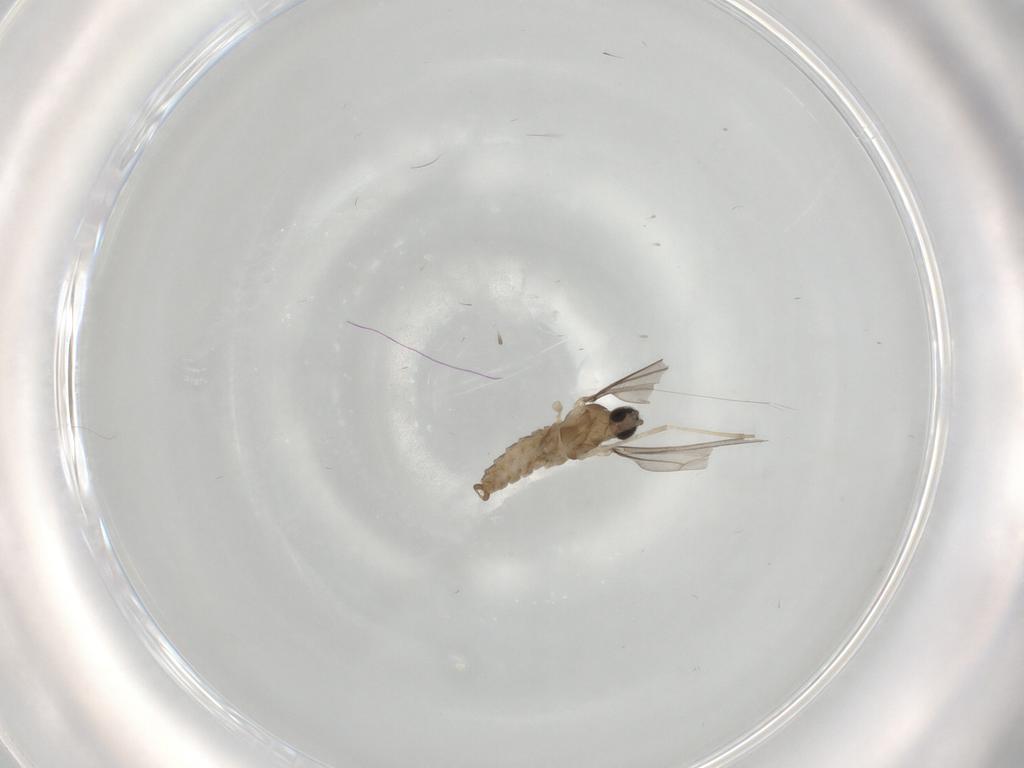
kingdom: Animalia
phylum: Arthropoda
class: Insecta
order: Diptera
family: Cecidomyiidae
